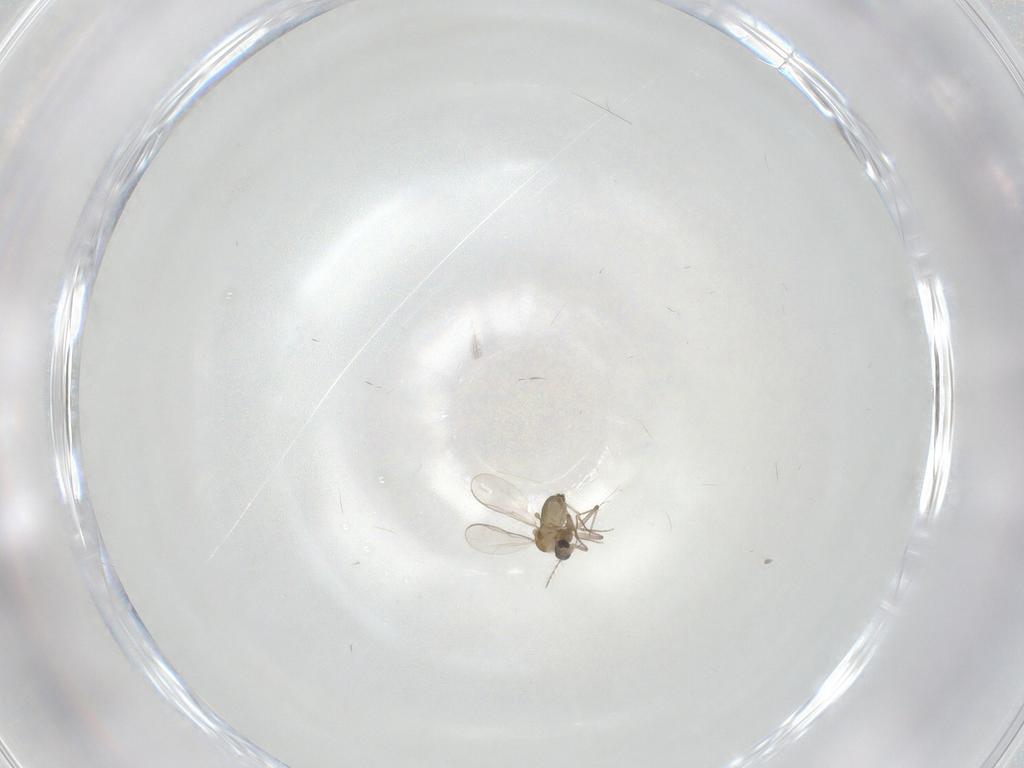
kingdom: Animalia
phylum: Arthropoda
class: Insecta
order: Diptera
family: Chironomidae
